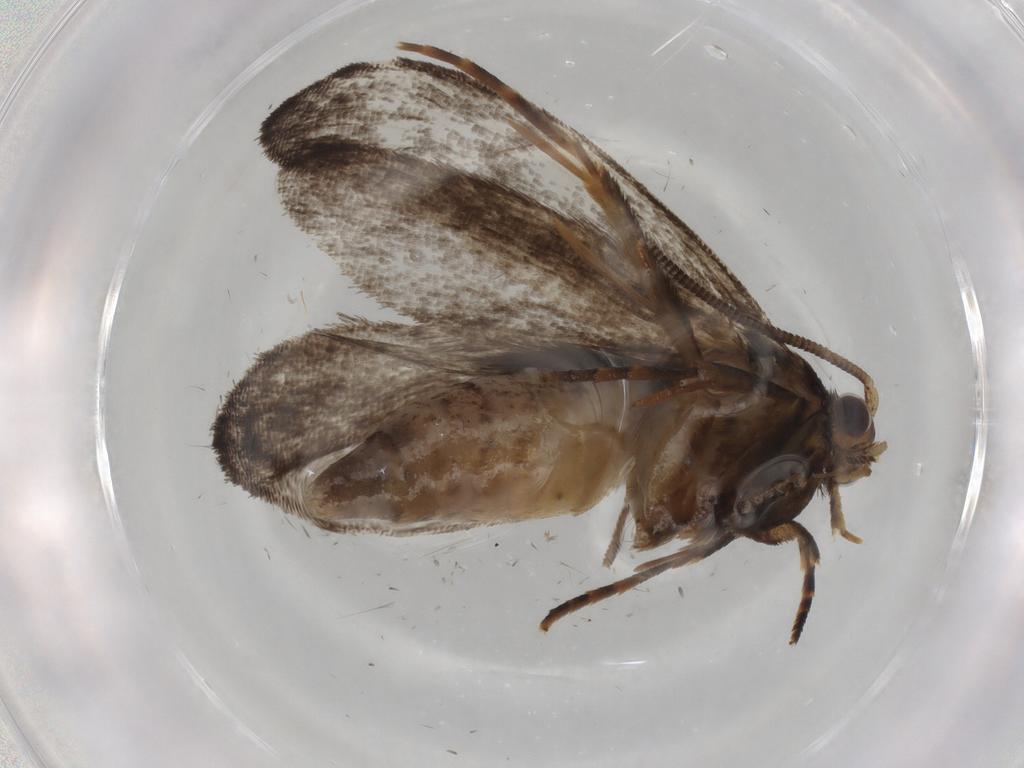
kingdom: Animalia
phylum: Arthropoda
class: Insecta
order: Lepidoptera
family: Tineidae
